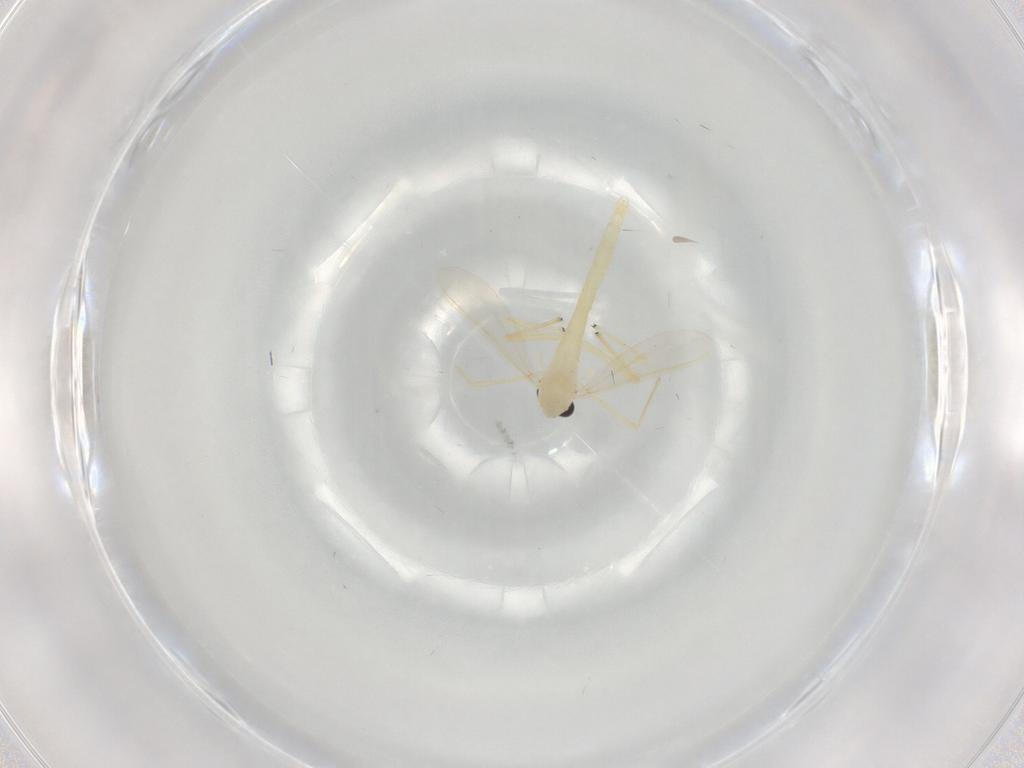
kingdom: Animalia
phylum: Arthropoda
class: Insecta
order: Diptera
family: Chironomidae
